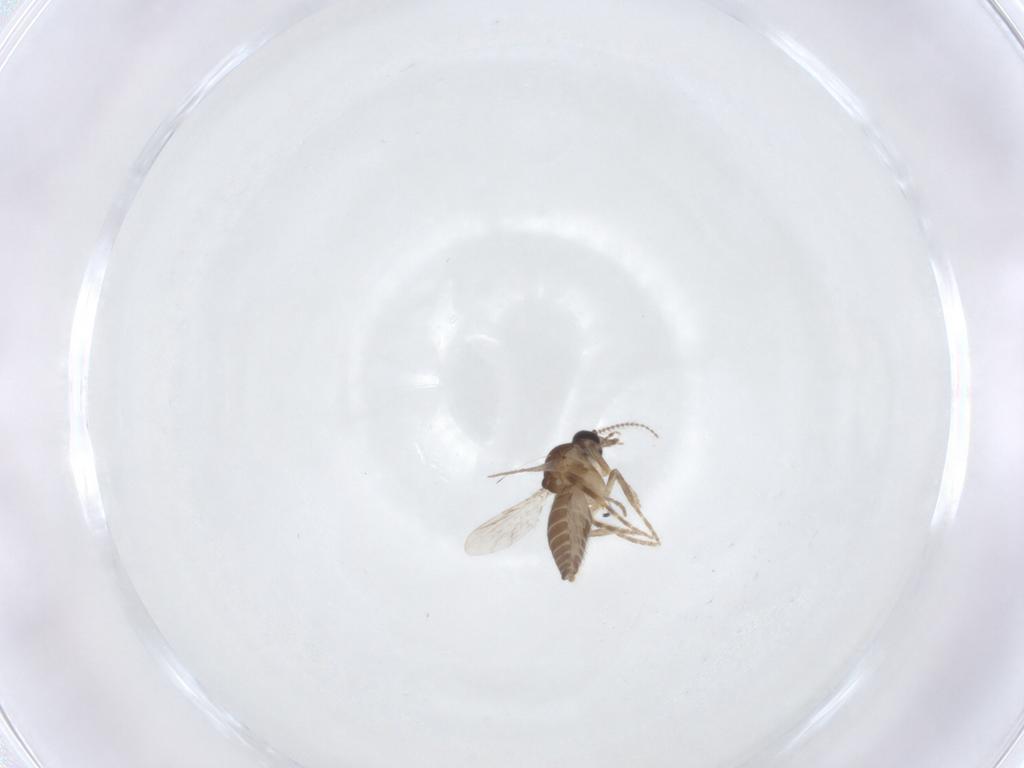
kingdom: Animalia
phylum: Arthropoda
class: Insecta
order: Diptera
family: Ceratopogonidae
